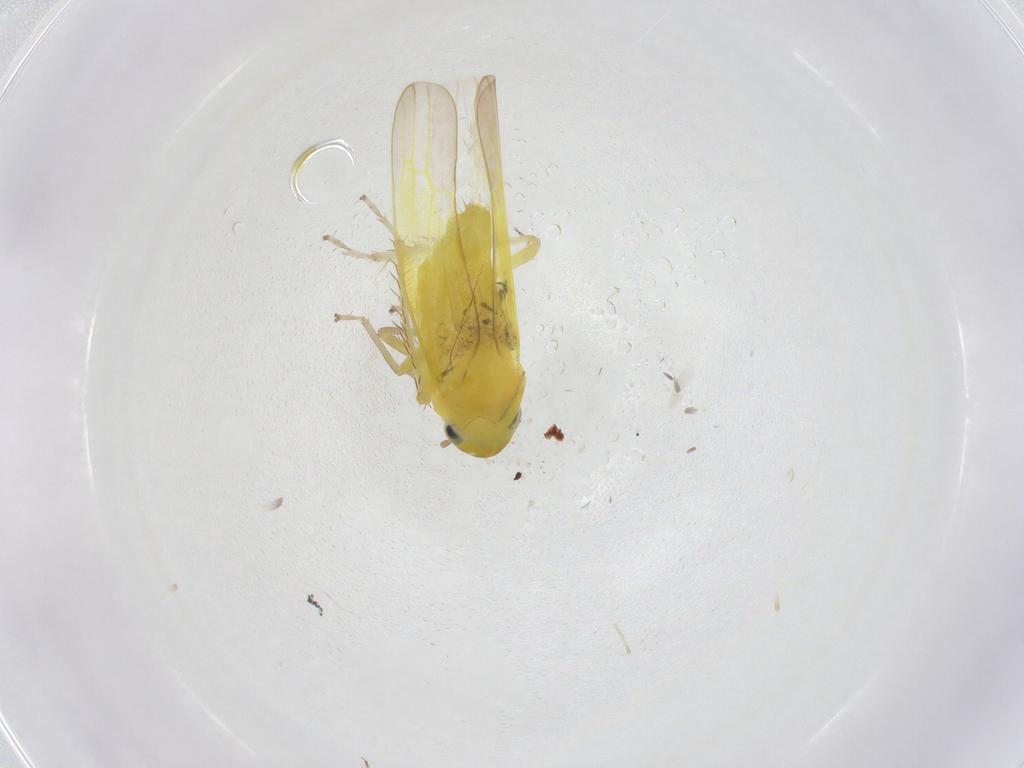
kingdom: Animalia
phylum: Arthropoda
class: Insecta
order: Hemiptera
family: Cicadellidae
